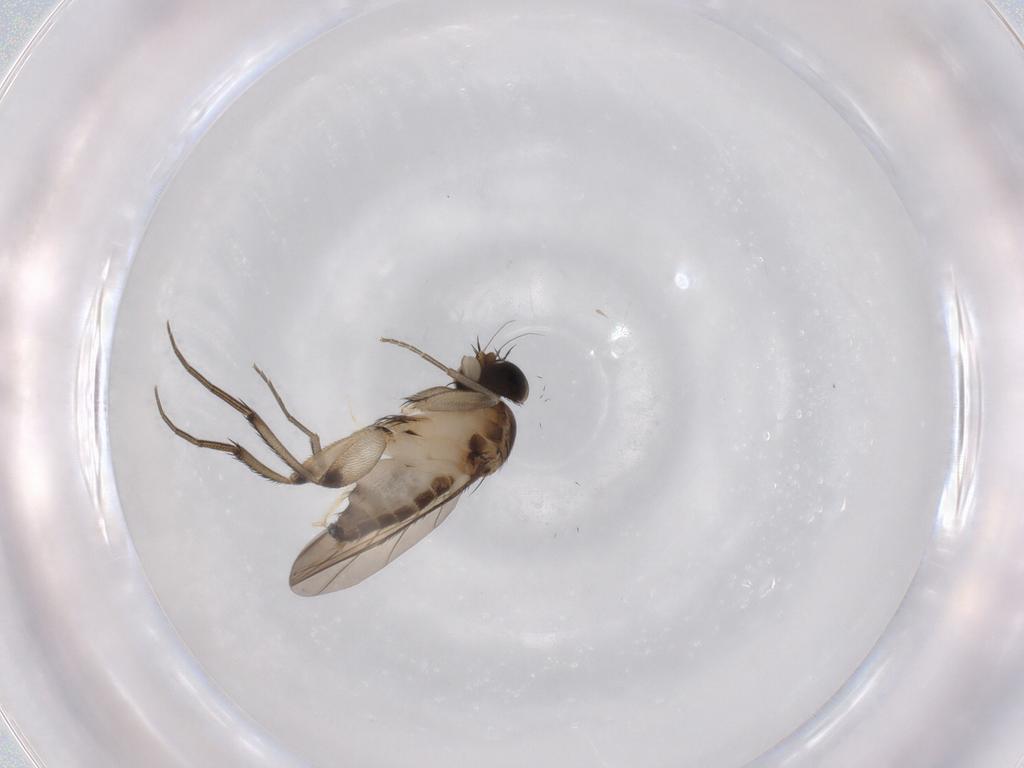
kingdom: Animalia
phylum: Arthropoda
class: Insecta
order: Diptera
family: Phoridae
